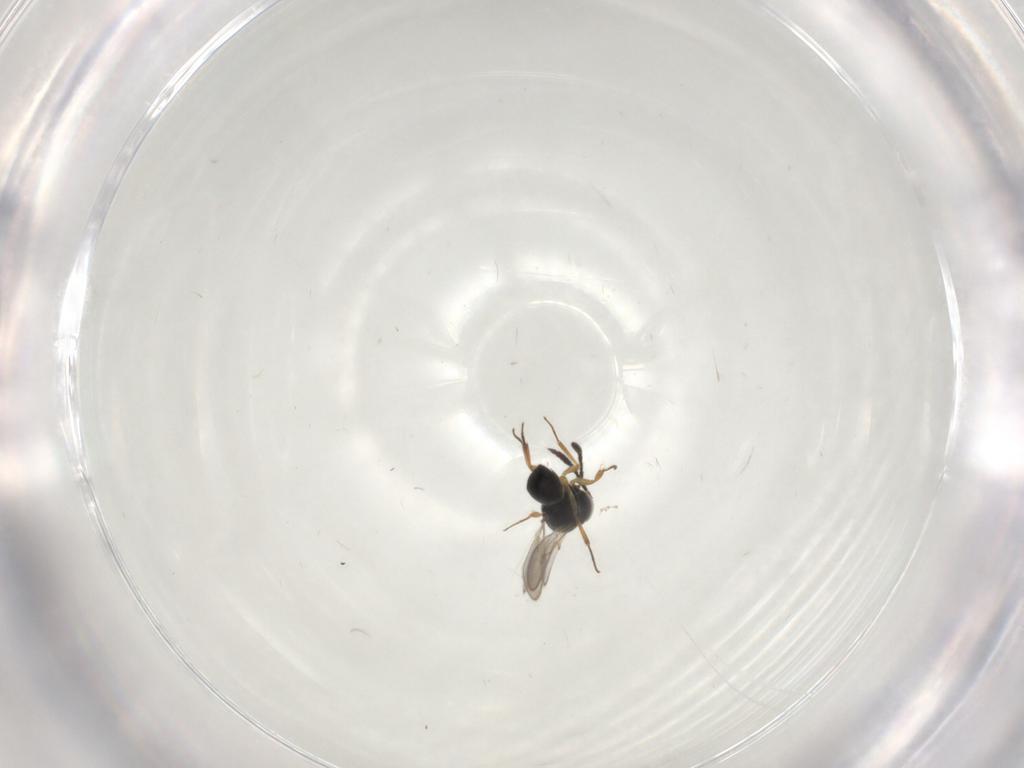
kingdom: Animalia
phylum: Arthropoda
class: Insecta
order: Hymenoptera
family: Scelionidae
